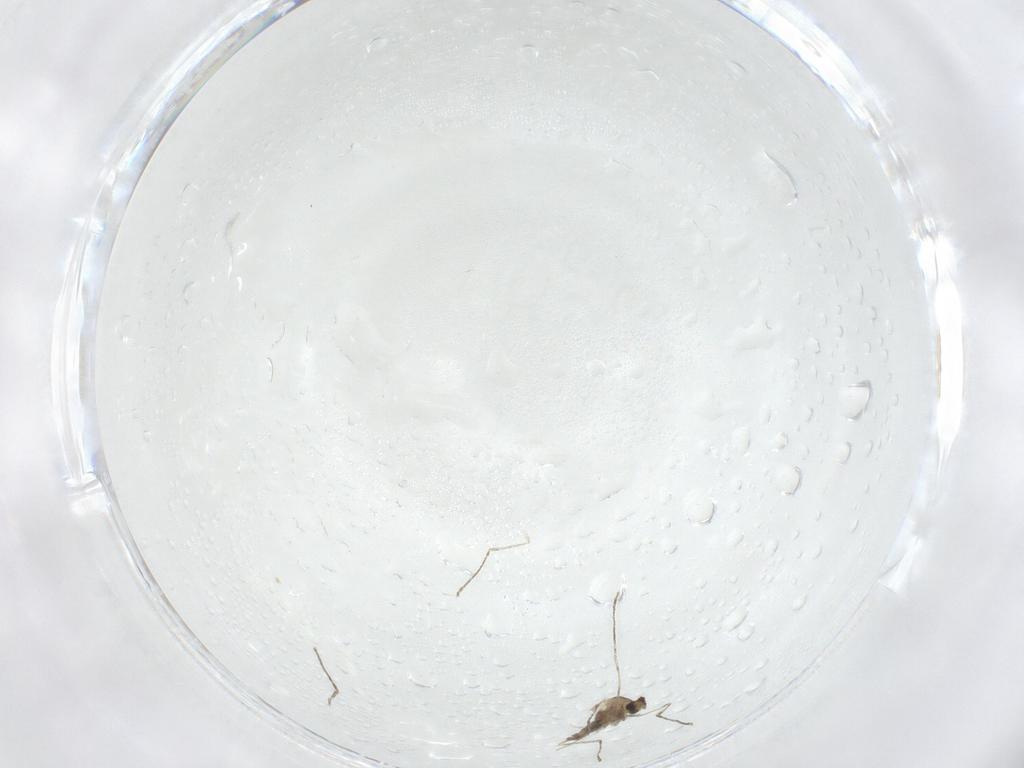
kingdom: Animalia
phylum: Arthropoda
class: Insecta
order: Diptera
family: Cecidomyiidae
